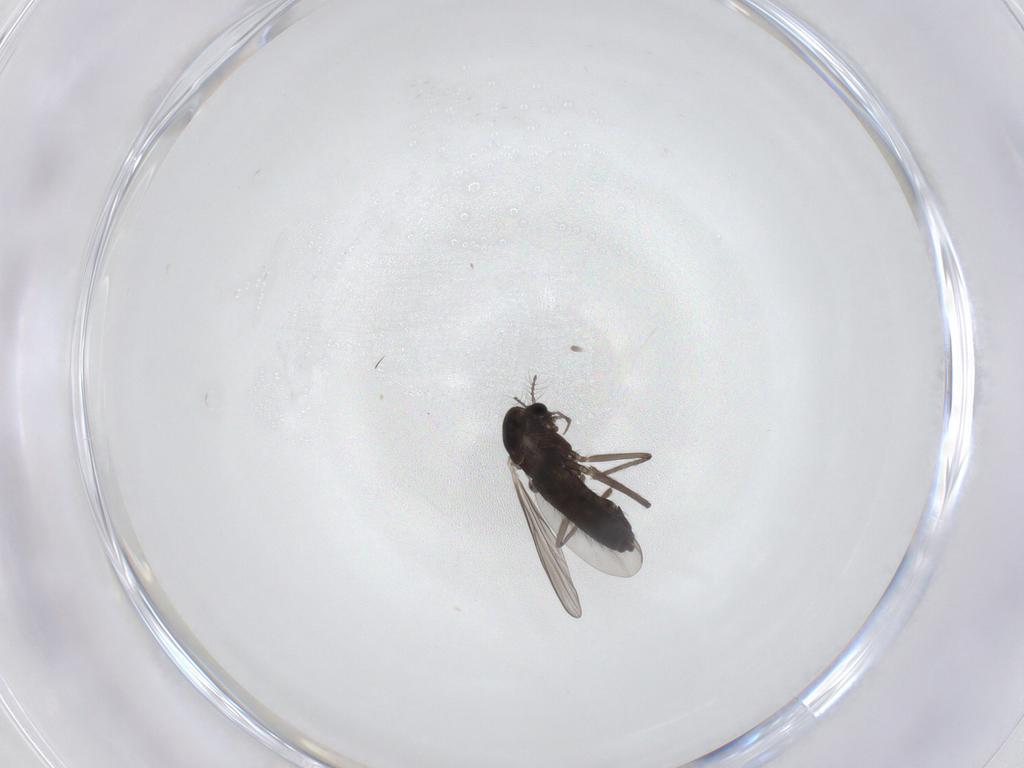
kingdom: Animalia
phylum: Arthropoda
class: Insecta
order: Diptera
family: Chironomidae
